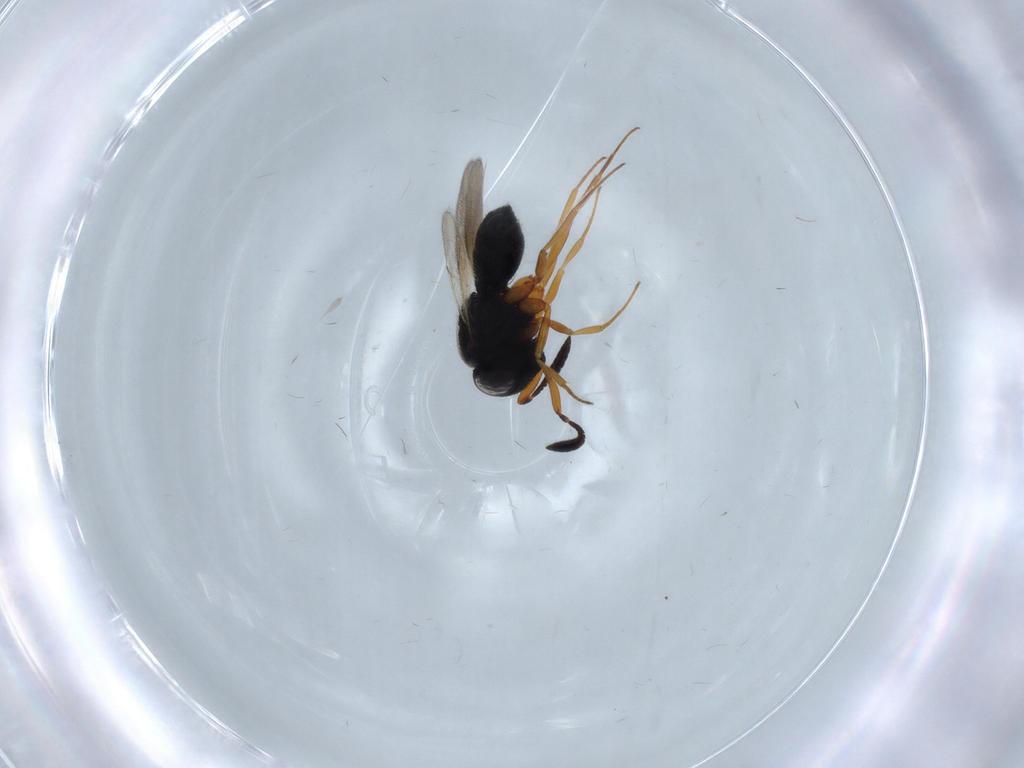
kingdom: Animalia
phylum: Arthropoda
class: Insecta
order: Hymenoptera
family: Scelionidae
